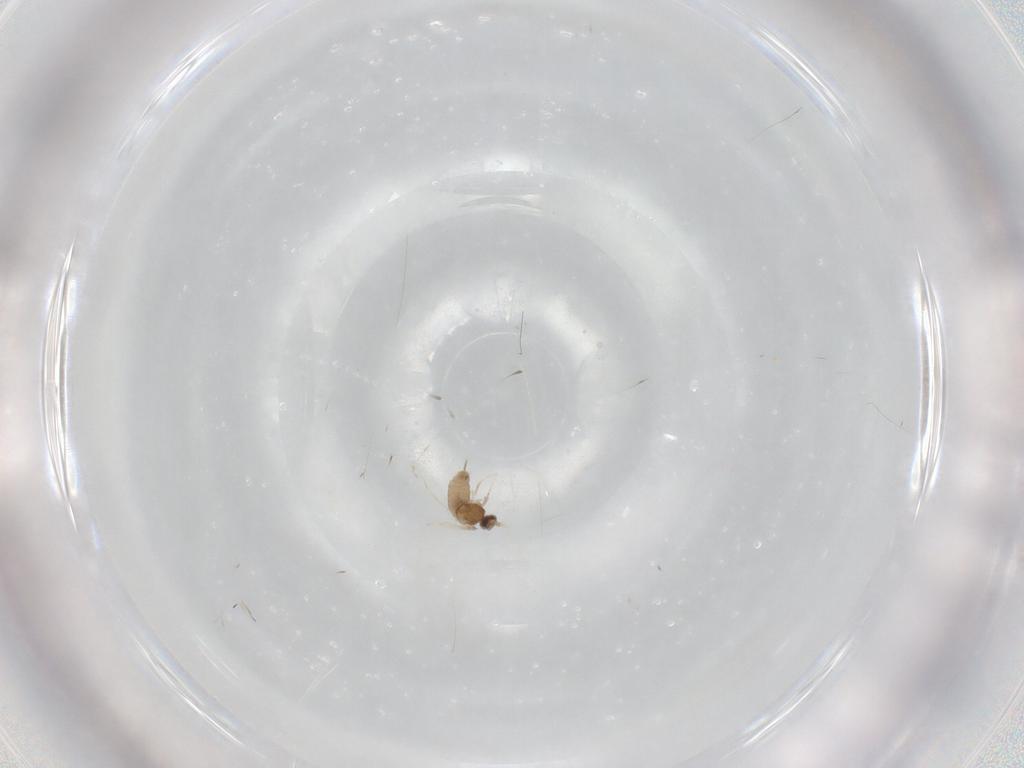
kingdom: Animalia
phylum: Arthropoda
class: Insecta
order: Diptera
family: Cecidomyiidae
